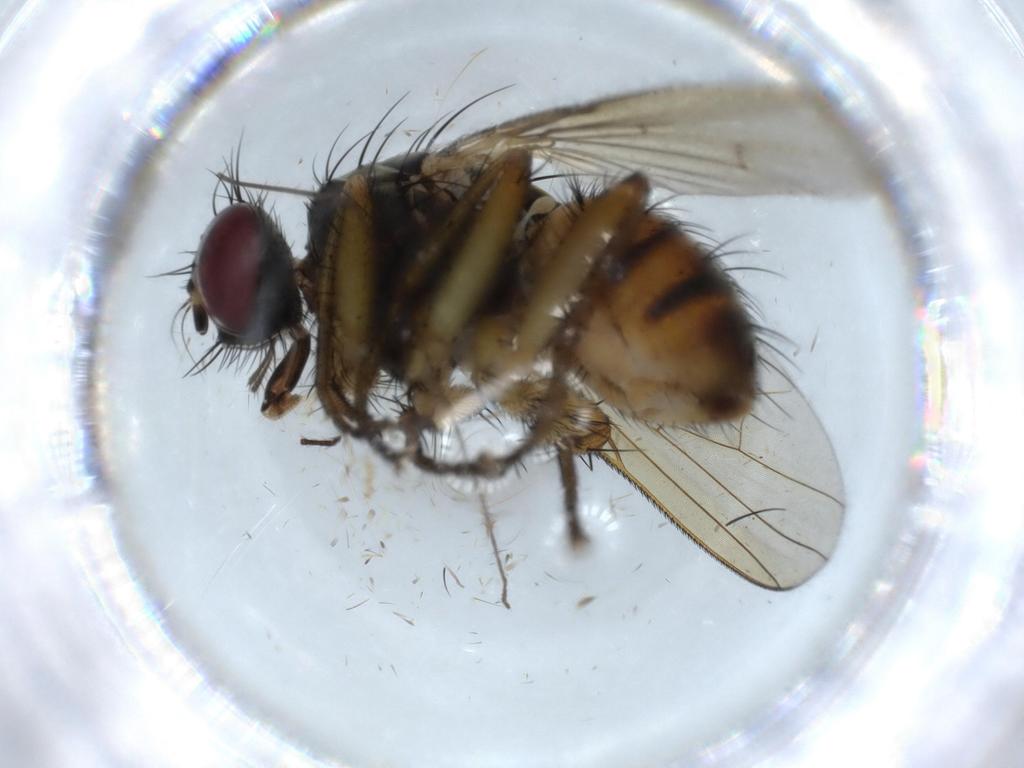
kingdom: Animalia
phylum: Arthropoda
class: Insecta
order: Diptera
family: Muscidae
